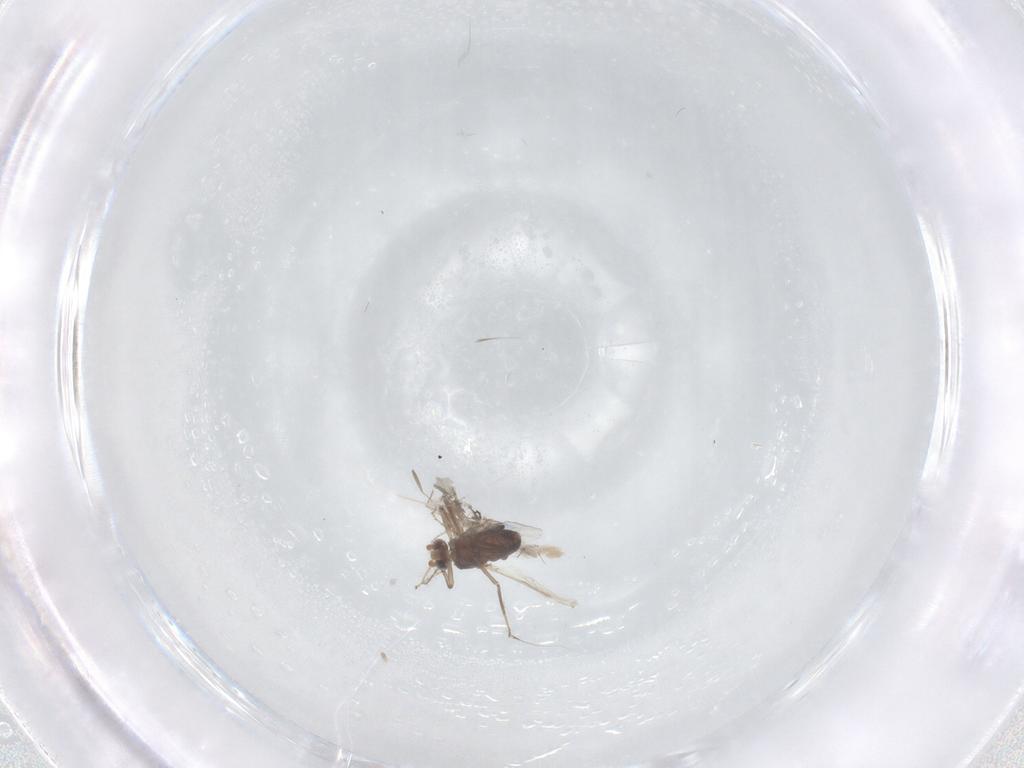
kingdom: Animalia
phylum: Arthropoda
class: Insecta
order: Diptera
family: Ceratopogonidae
